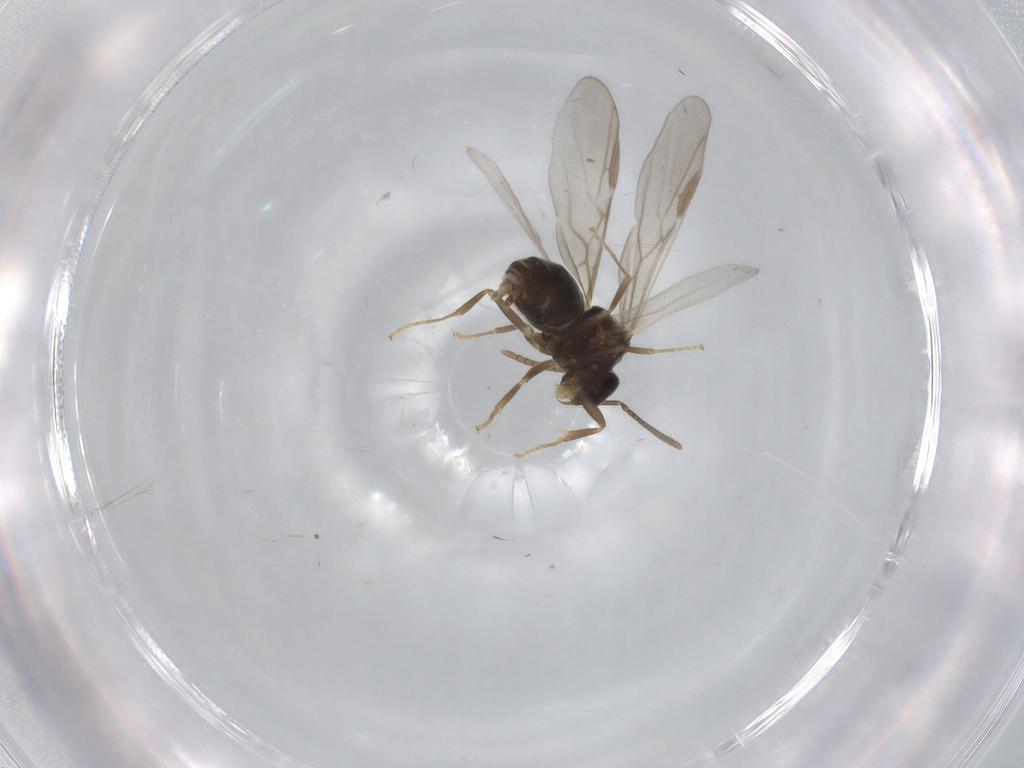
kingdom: Animalia
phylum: Arthropoda
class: Insecta
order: Hymenoptera
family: Formicidae
